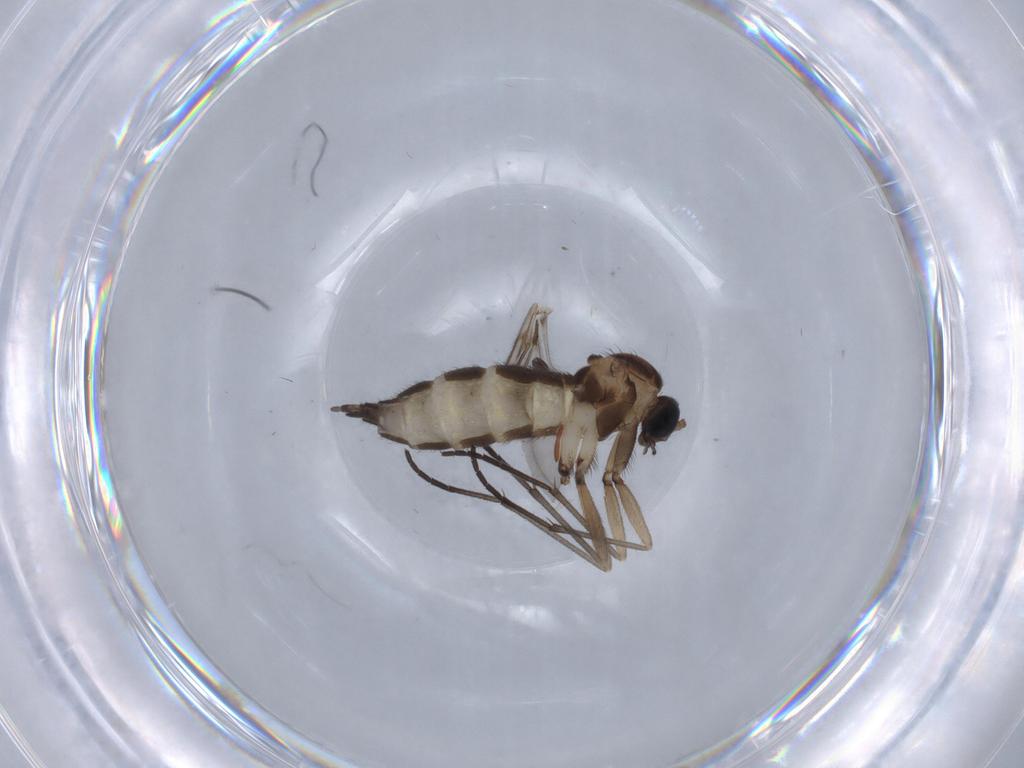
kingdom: Animalia
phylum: Arthropoda
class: Insecta
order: Diptera
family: Sciaridae
